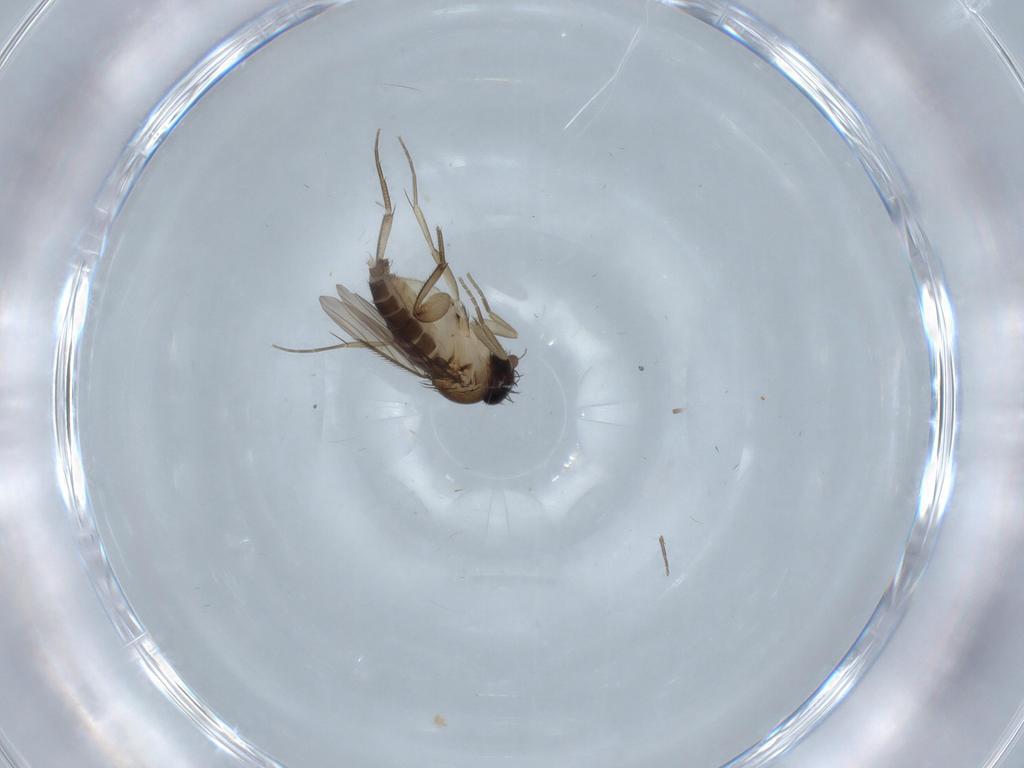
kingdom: Animalia
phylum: Arthropoda
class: Insecta
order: Diptera
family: Phoridae
